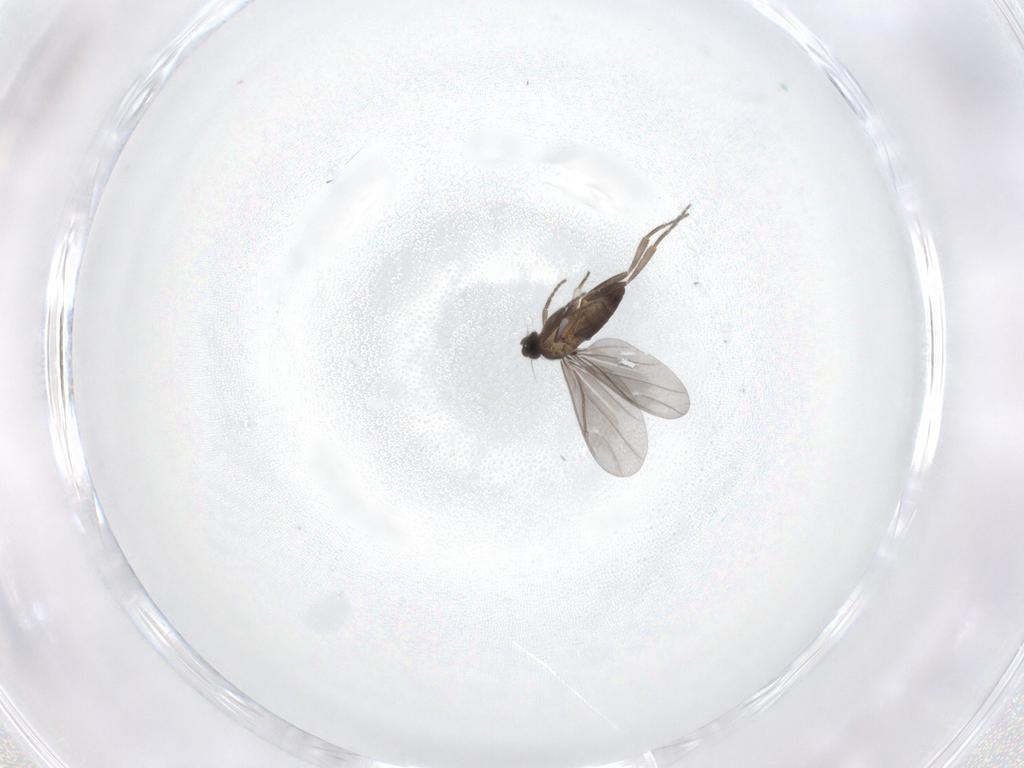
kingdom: Animalia
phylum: Arthropoda
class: Insecta
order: Diptera
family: Phoridae
